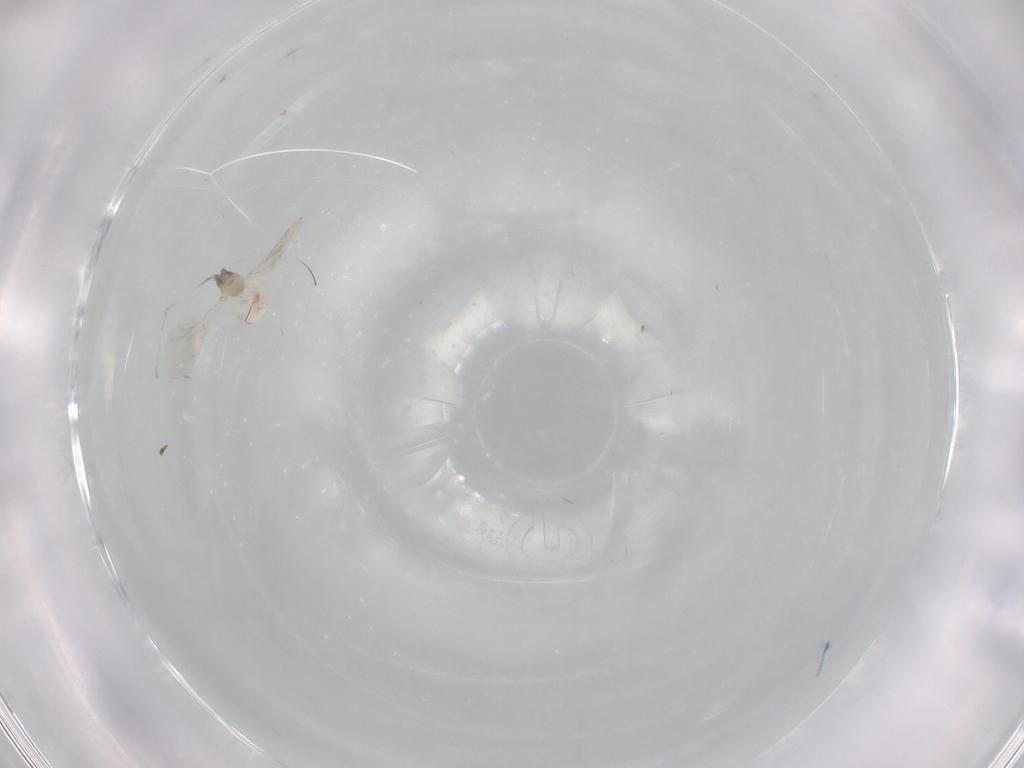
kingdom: Animalia
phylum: Arthropoda
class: Insecta
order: Diptera
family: Cecidomyiidae
